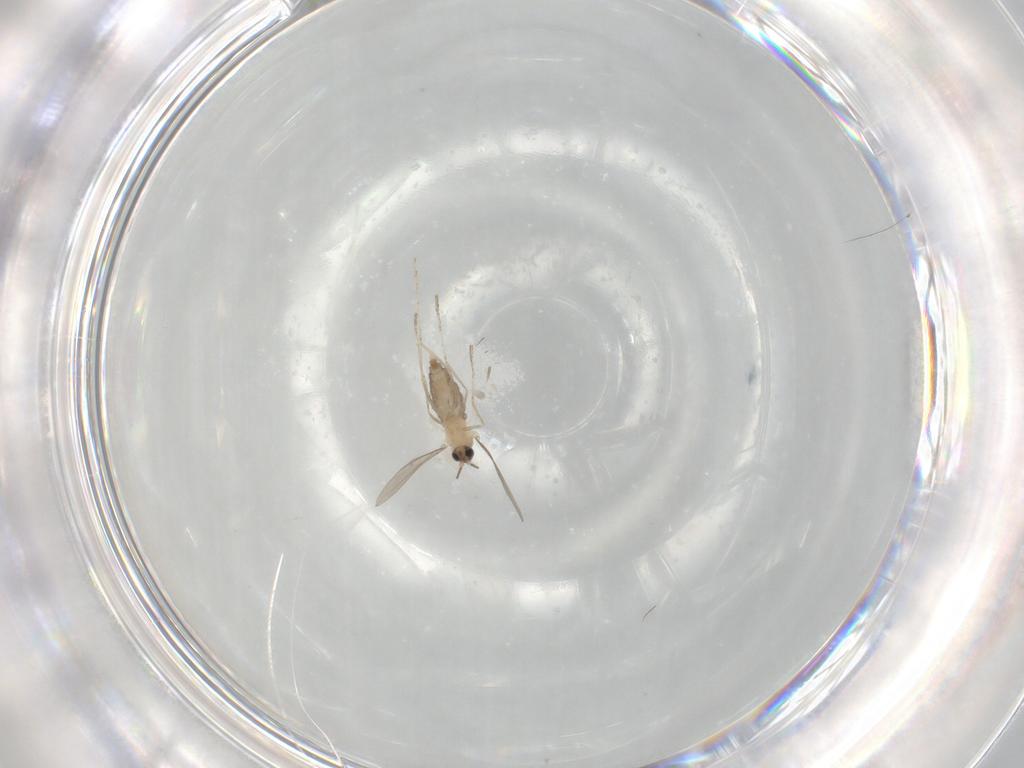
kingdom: Animalia
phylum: Arthropoda
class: Insecta
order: Diptera
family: Cecidomyiidae
